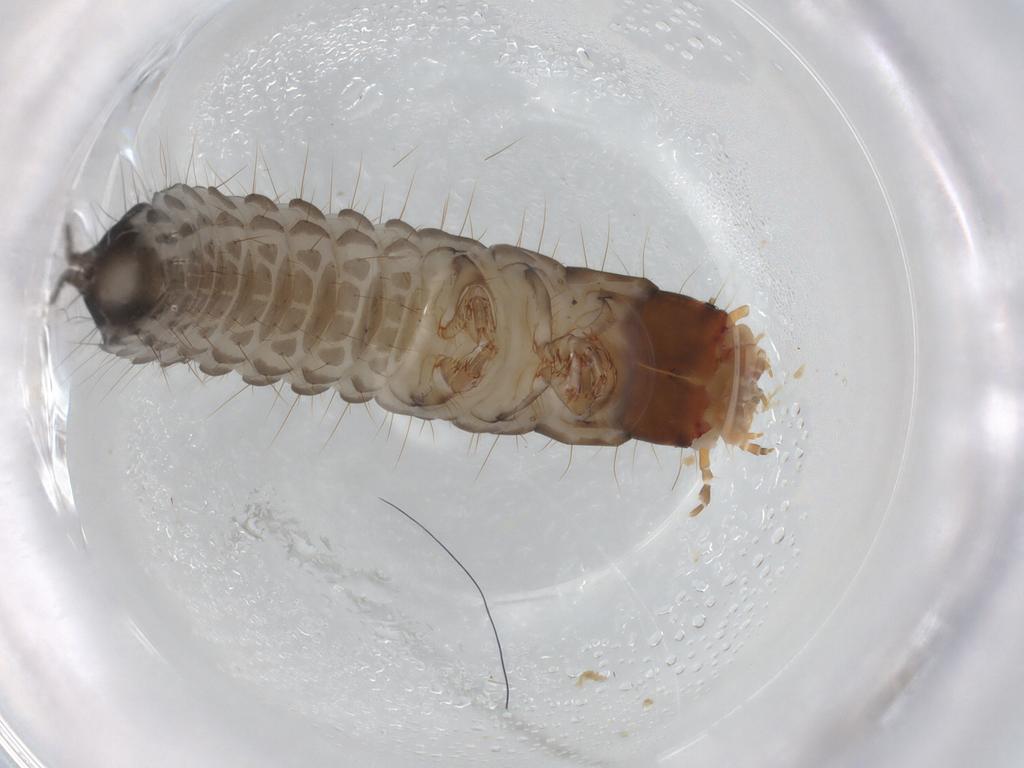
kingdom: Animalia
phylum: Arthropoda
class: Insecta
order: Coleoptera
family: Carabidae
